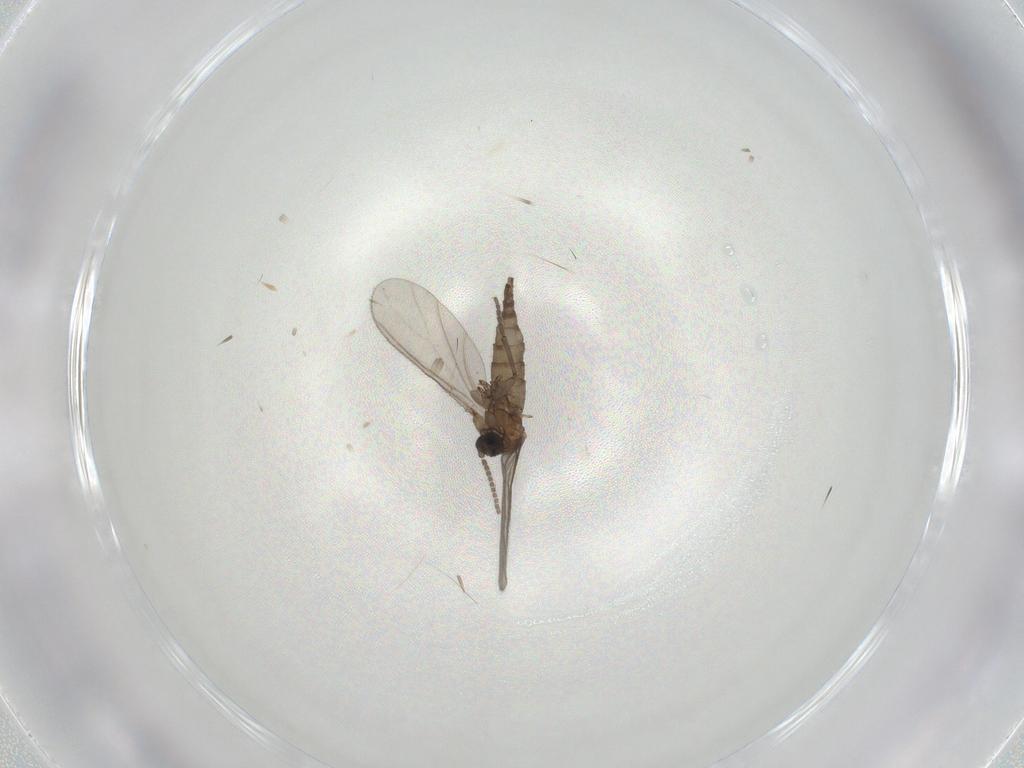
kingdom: Animalia
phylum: Arthropoda
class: Insecta
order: Diptera
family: Sciaridae
